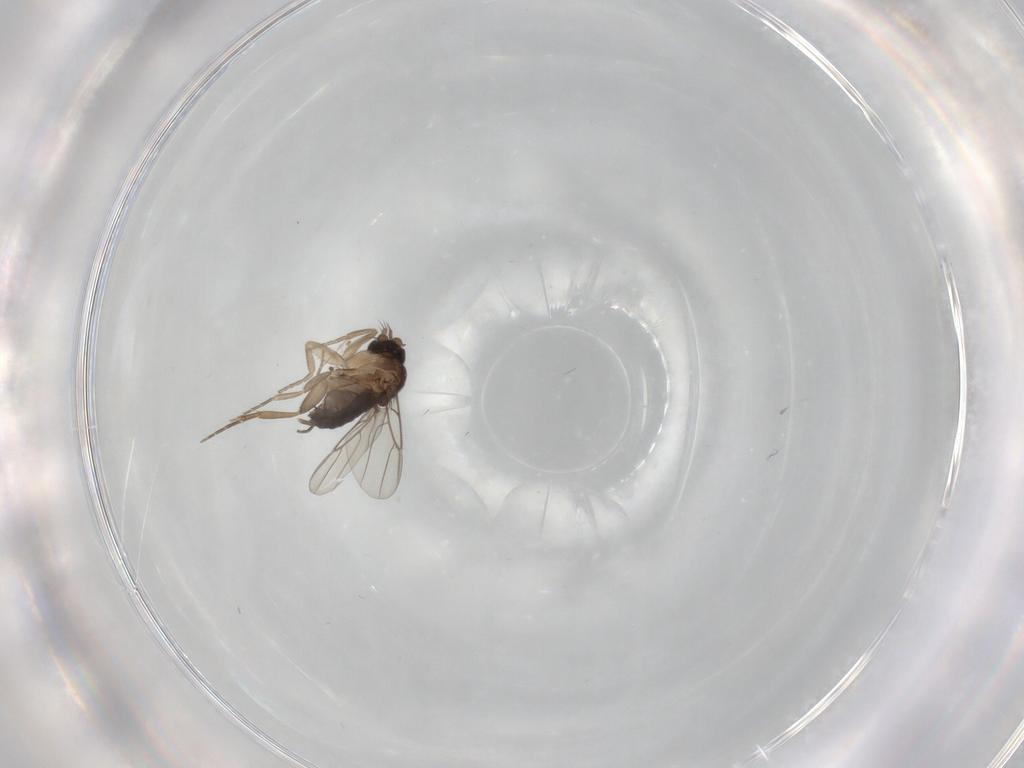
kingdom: Animalia
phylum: Arthropoda
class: Insecta
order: Diptera
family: Phoridae
